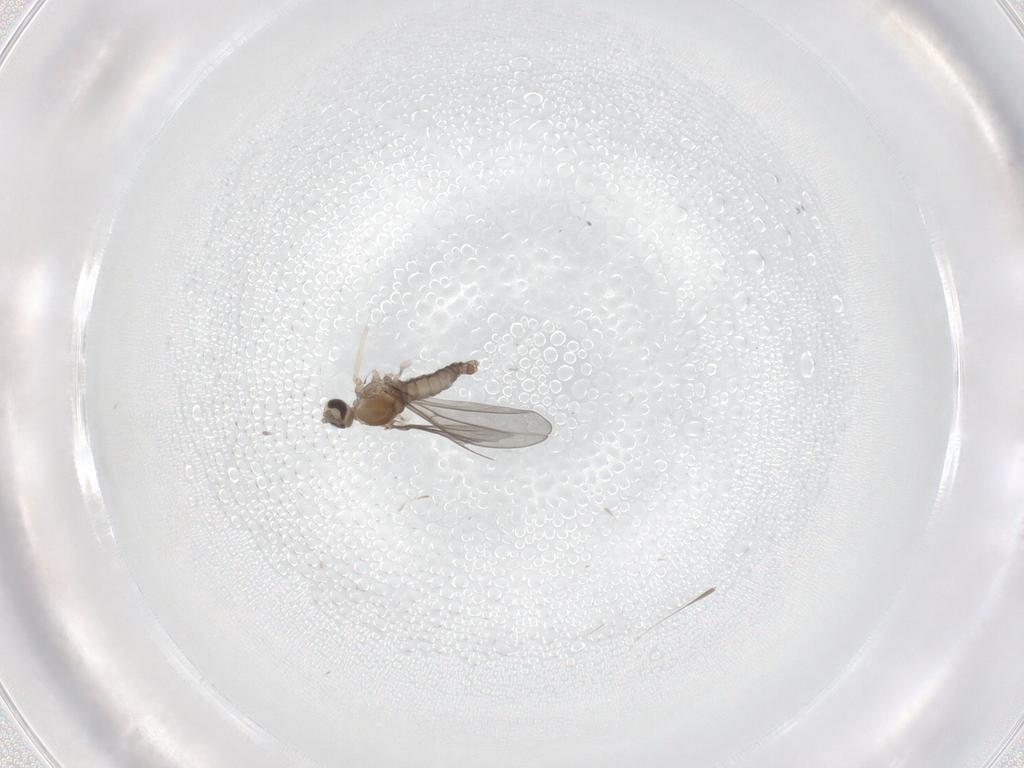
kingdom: Animalia
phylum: Arthropoda
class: Insecta
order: Diptera
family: Cecidomyiidae
